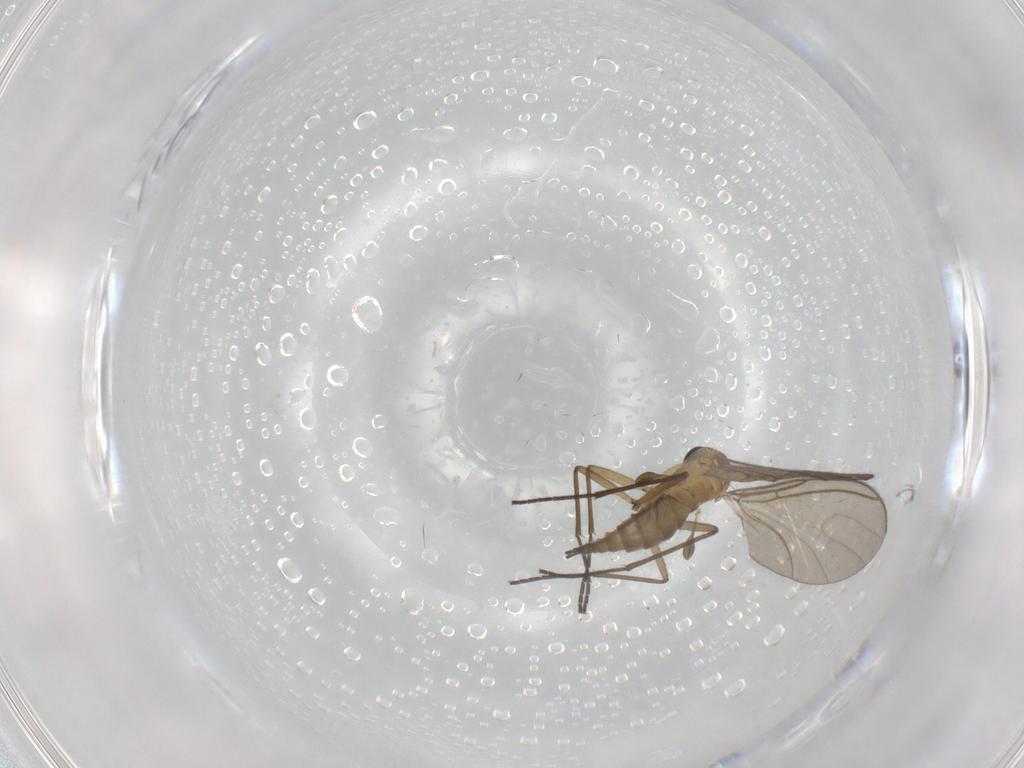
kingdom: Animalia
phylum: Arthropoda
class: Insecta
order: Diptera
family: Sciaridae
